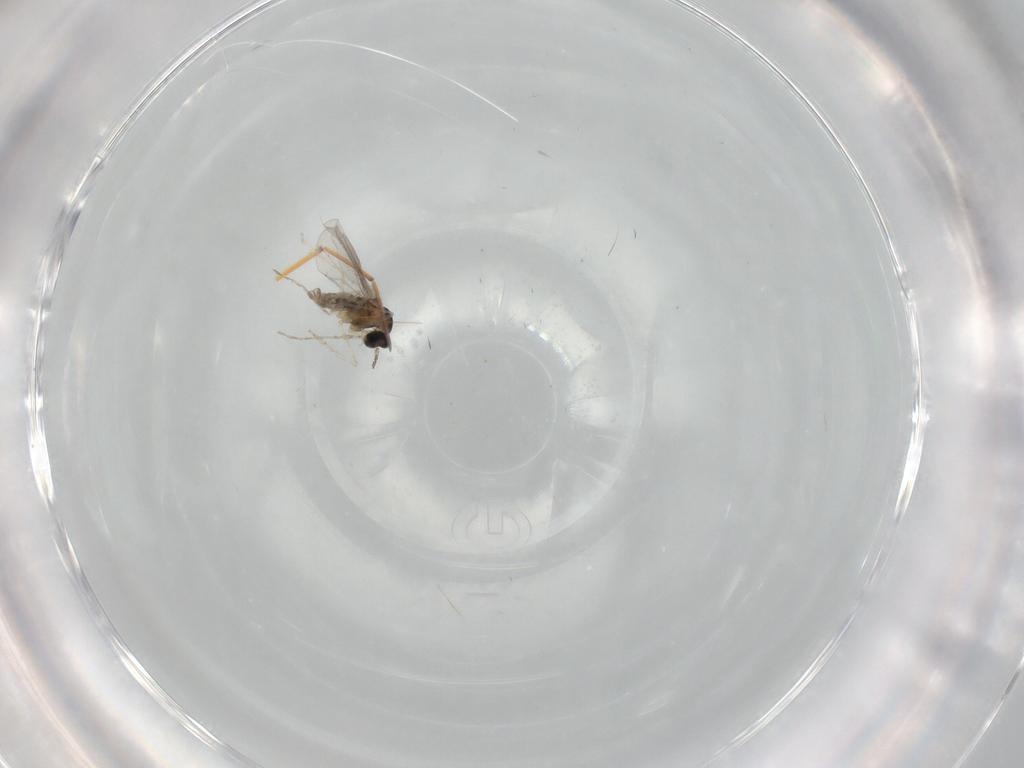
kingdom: Animalia
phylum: Arthropoda
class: Insecta
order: Diptera
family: Cecidomyiidae
